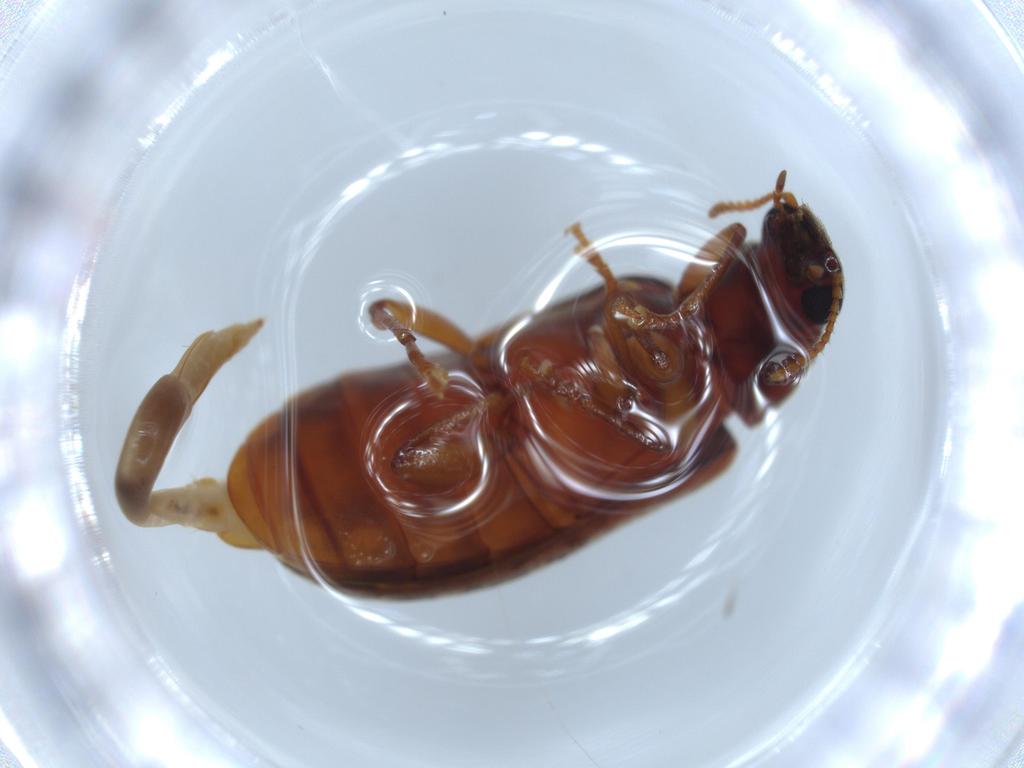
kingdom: Animalia
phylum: Arthropoda
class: Insecta
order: Coleoptera
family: Mycteridae
